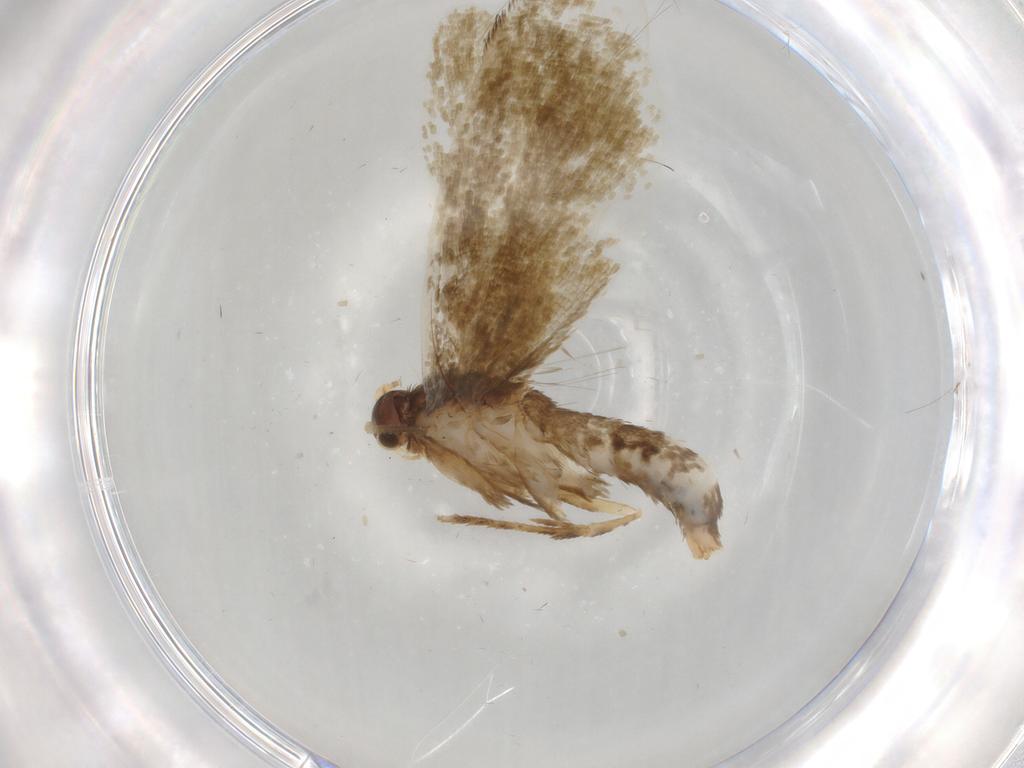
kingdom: Animalia
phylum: Arthropoda
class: Insecta
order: Lepidoptera
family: Tineidae
